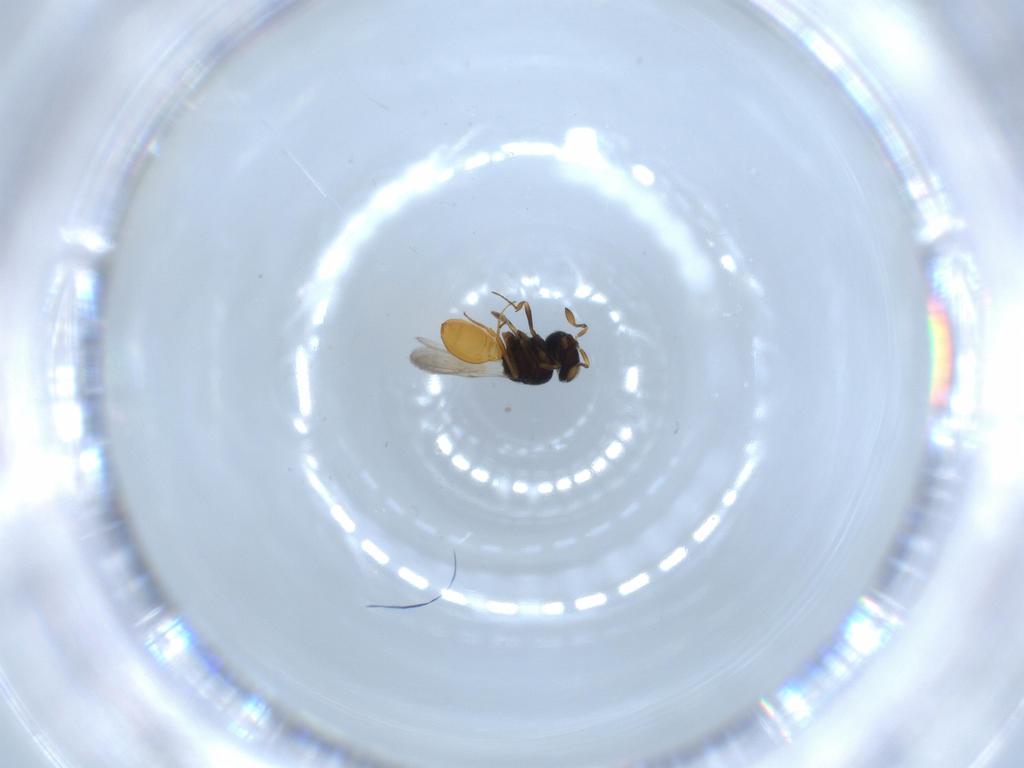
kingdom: Animalia
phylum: Arthropoda
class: Insecta
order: Hymenoptera
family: Scelionidae
